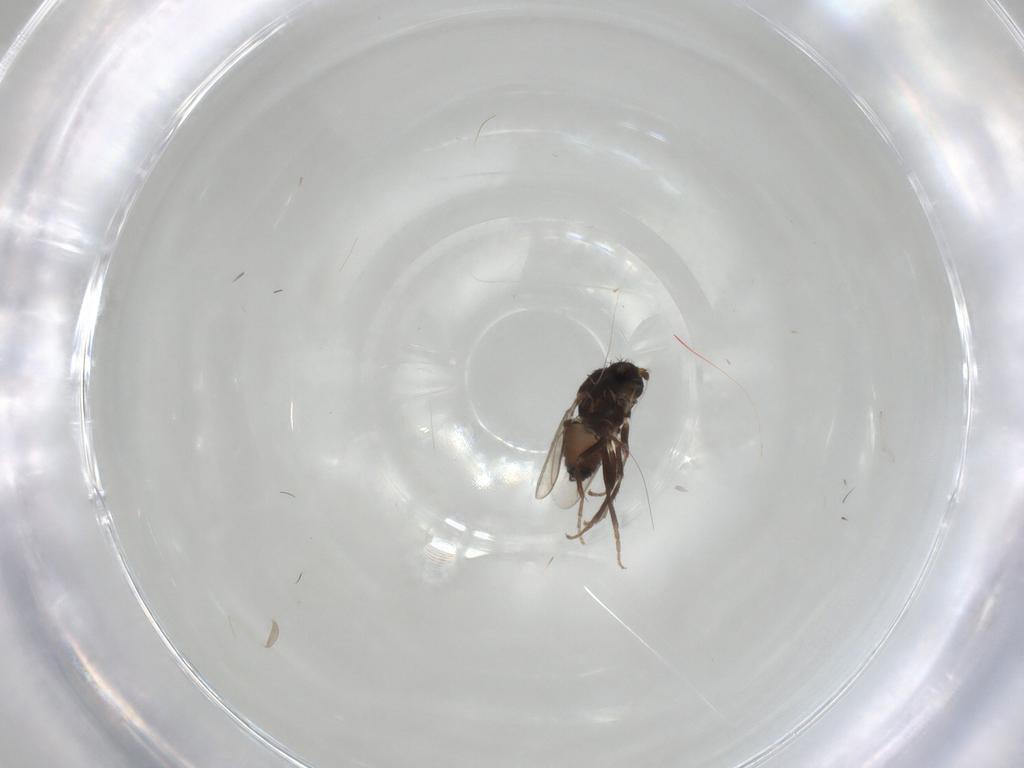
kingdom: Animalia
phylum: Arthropoda
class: Insecta
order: Diptera
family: Sphaeroceridae
